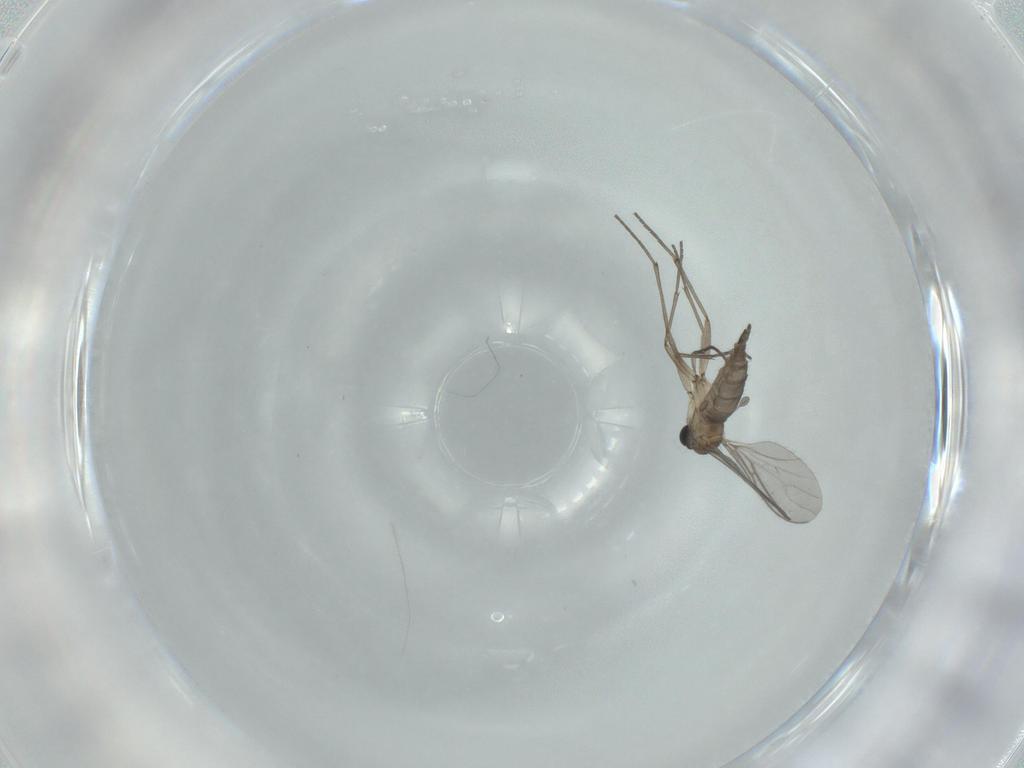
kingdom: Animalia
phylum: Arthropoda
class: Insecta
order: Diptera
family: Sciaridae
